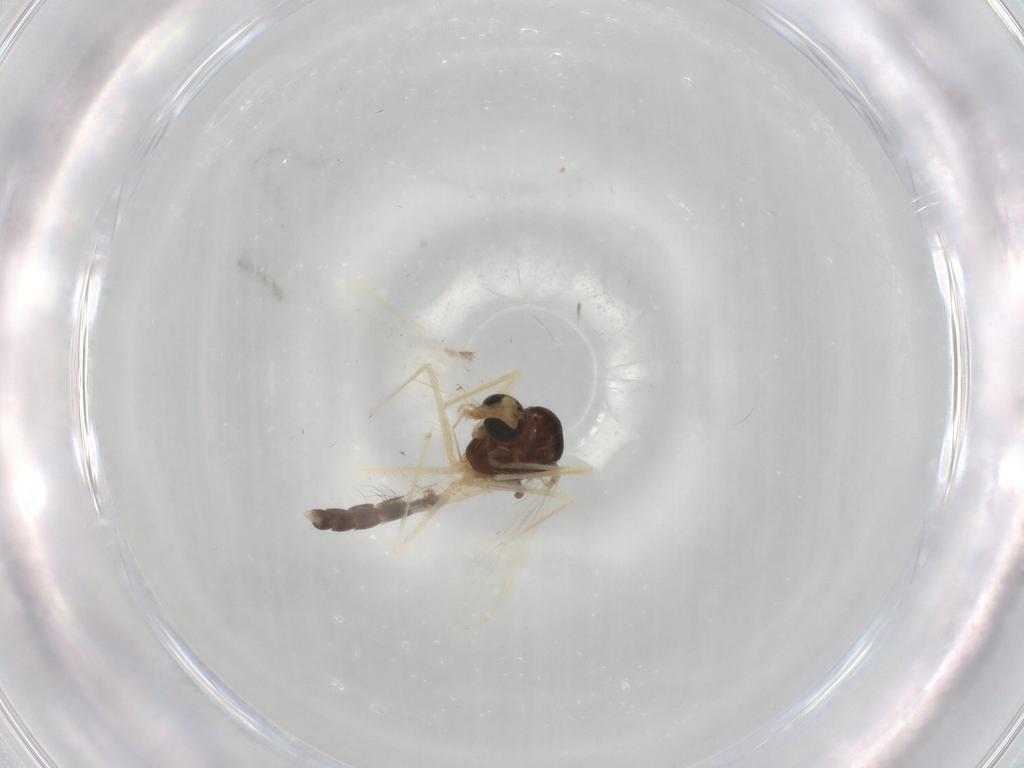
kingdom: Animalia
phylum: Arthropoda
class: Insecta
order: Diptera
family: Chironomidae
